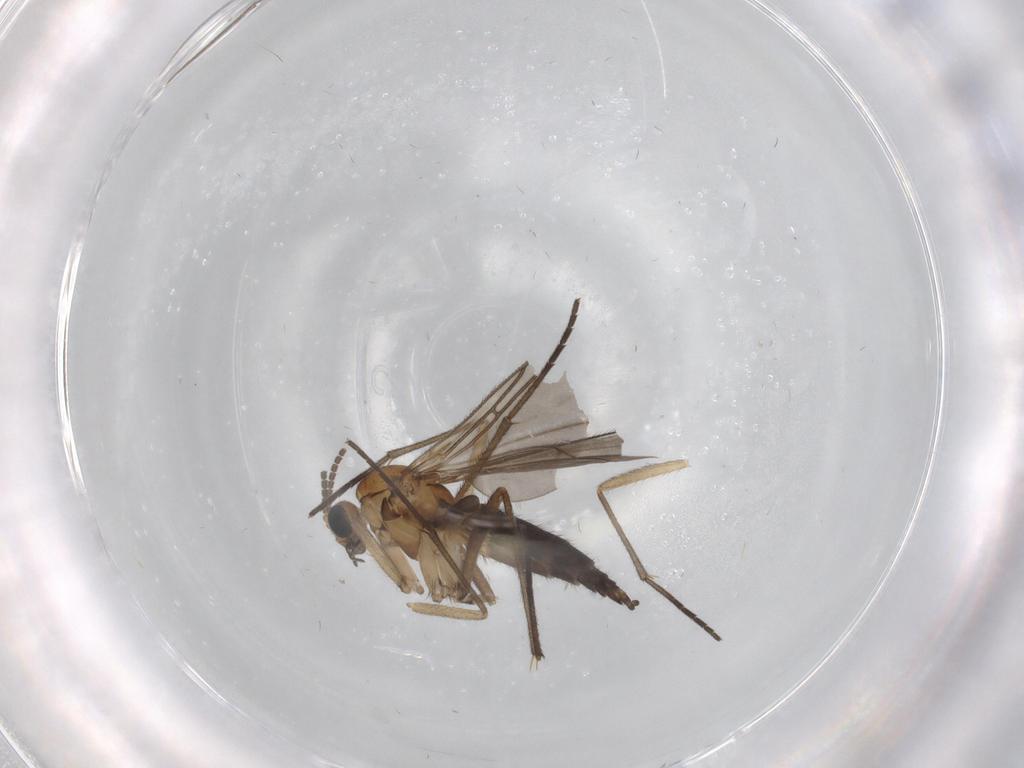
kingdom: Animalia
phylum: Arthropoda
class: Insecta
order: Diptera
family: Sciaridae
